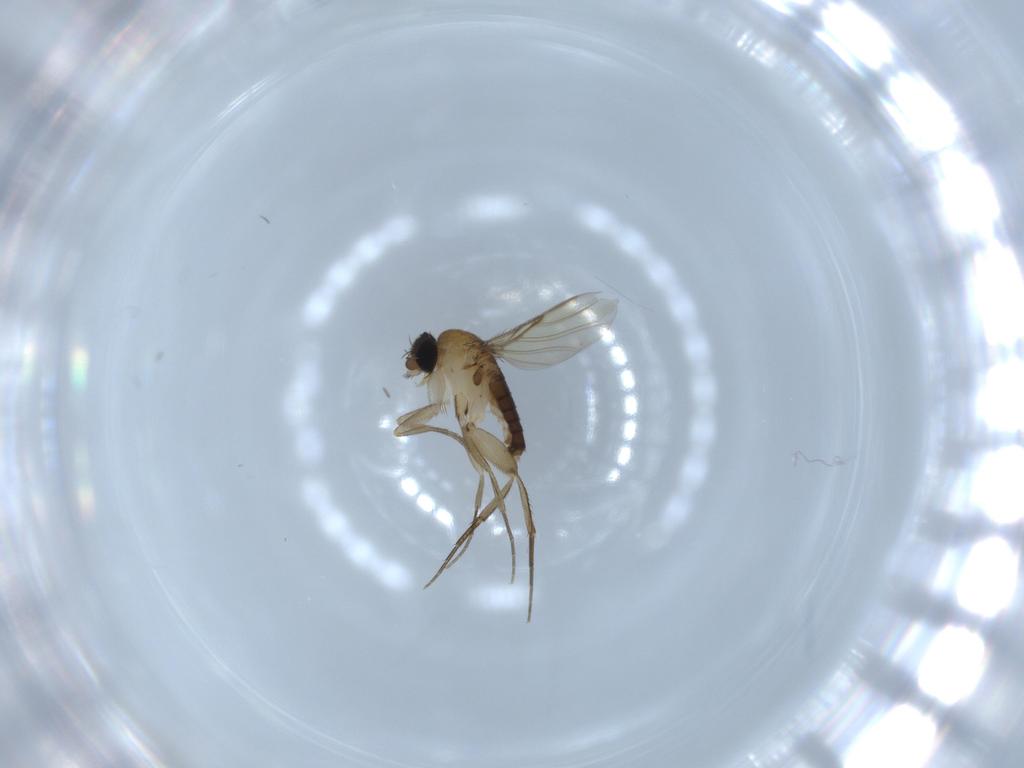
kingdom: Animalia
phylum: Arthropoda
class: Insecta
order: Diptera
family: Phoridae
